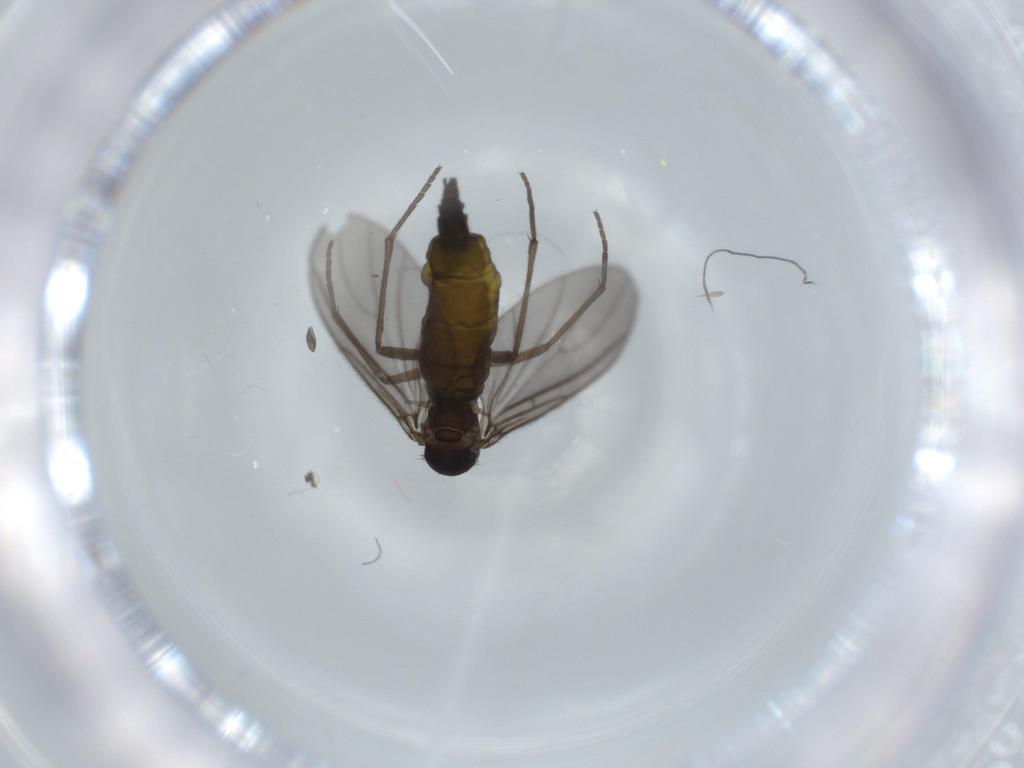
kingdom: Animalia
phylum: Arthropoda
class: Insecta
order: Diptera
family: Sciaridae
